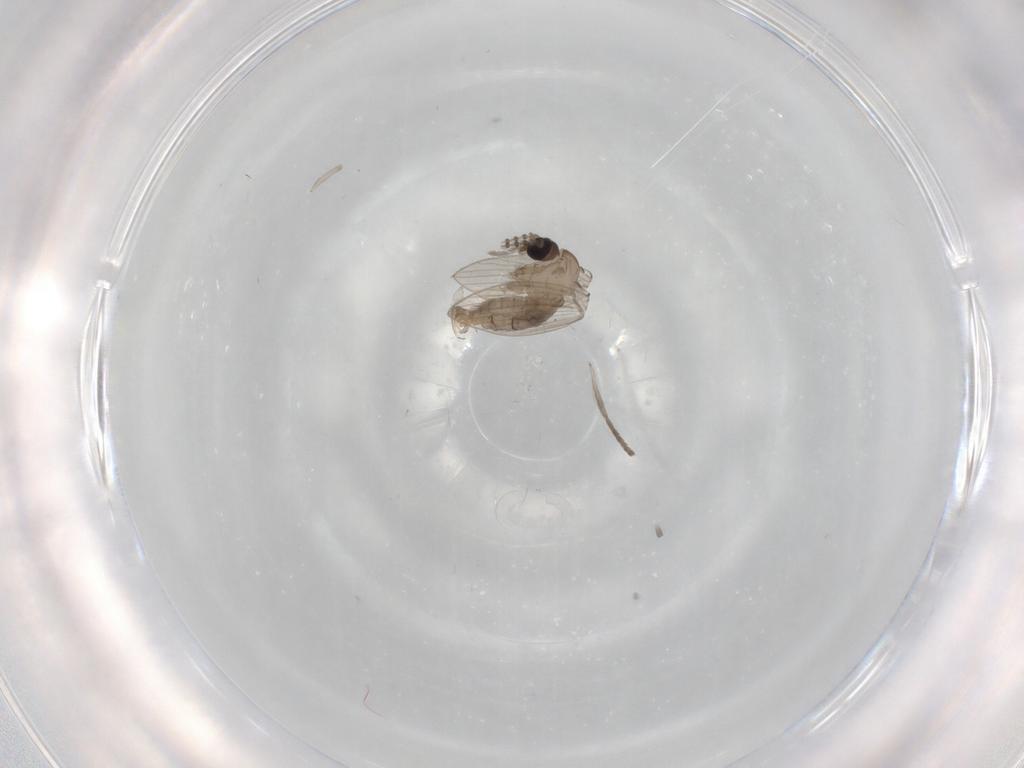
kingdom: Animalia
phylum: Arthropoda
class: Insecta
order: Diptera
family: Psychodidae
